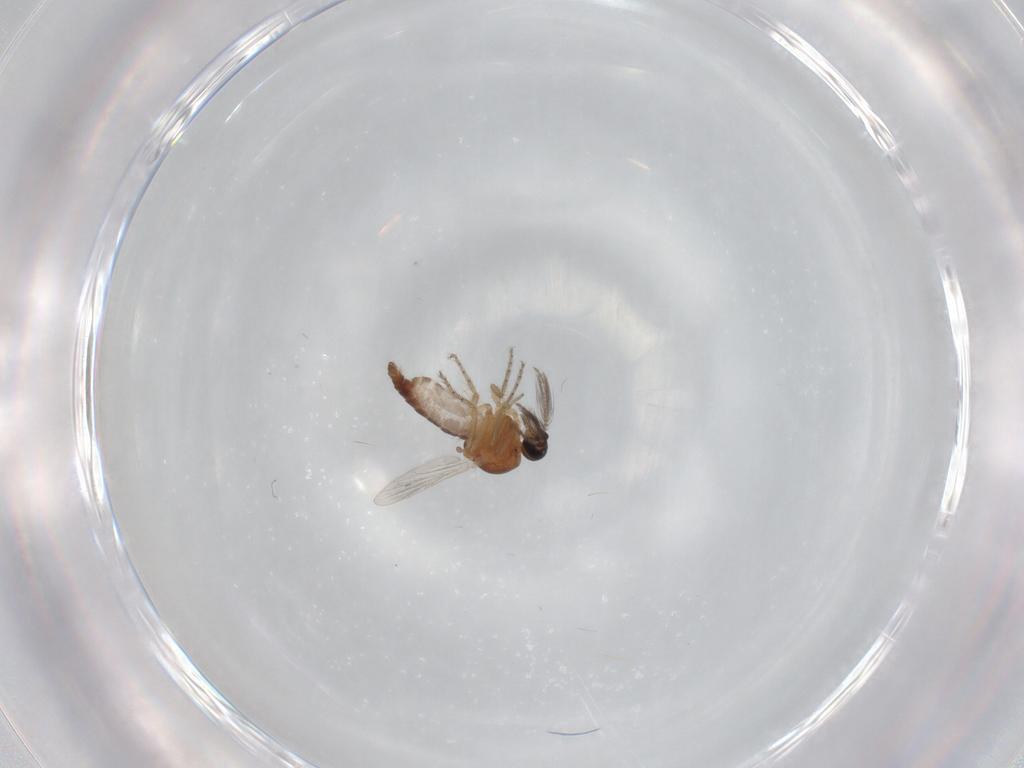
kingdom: Animalia
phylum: Arthropoda
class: Insecta
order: Diptera
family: Ceratopogonidae
